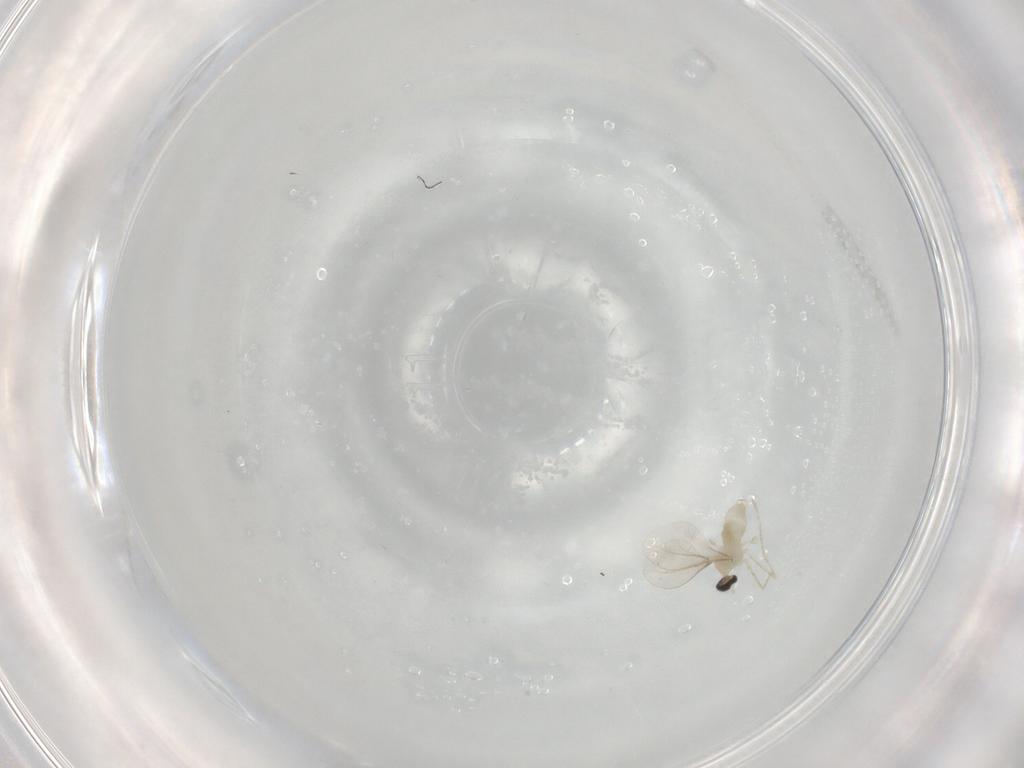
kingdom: Animalia
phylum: Arthropoda
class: Insecta
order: Diptera
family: Cecidomyiidae
